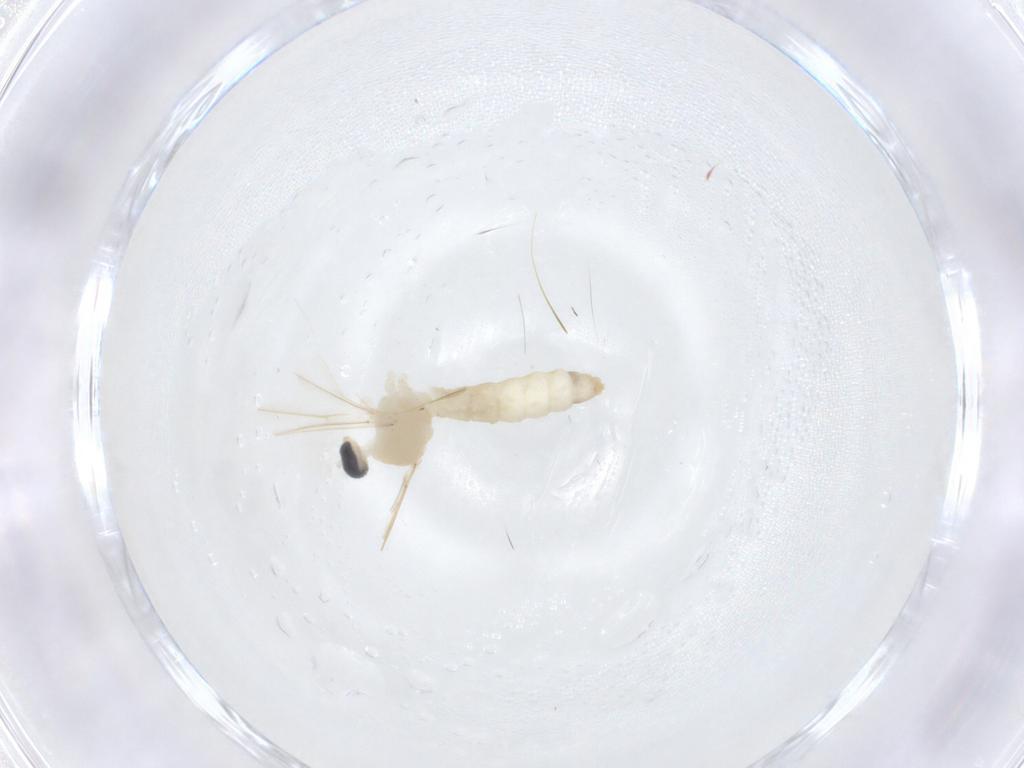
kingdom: Animalia
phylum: Arthropoda
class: Insecta
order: Diptera
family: Cecidomyiidae
